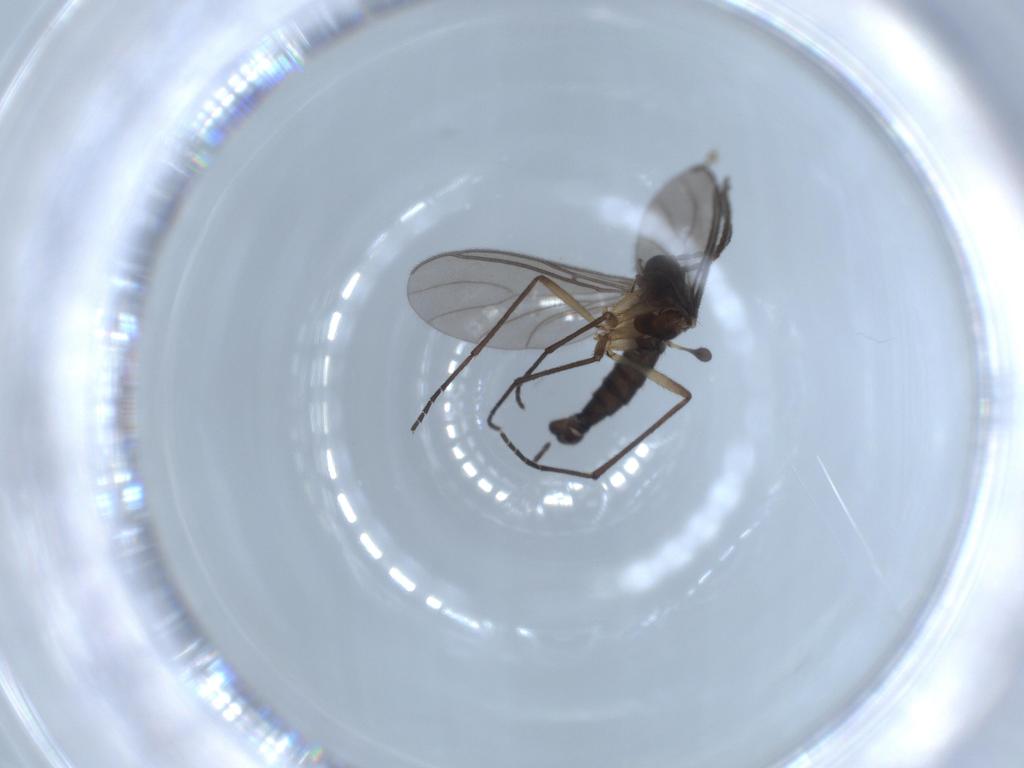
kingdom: Animalia
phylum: Arthropoda
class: Insecta
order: Diptera
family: Sciaridae
